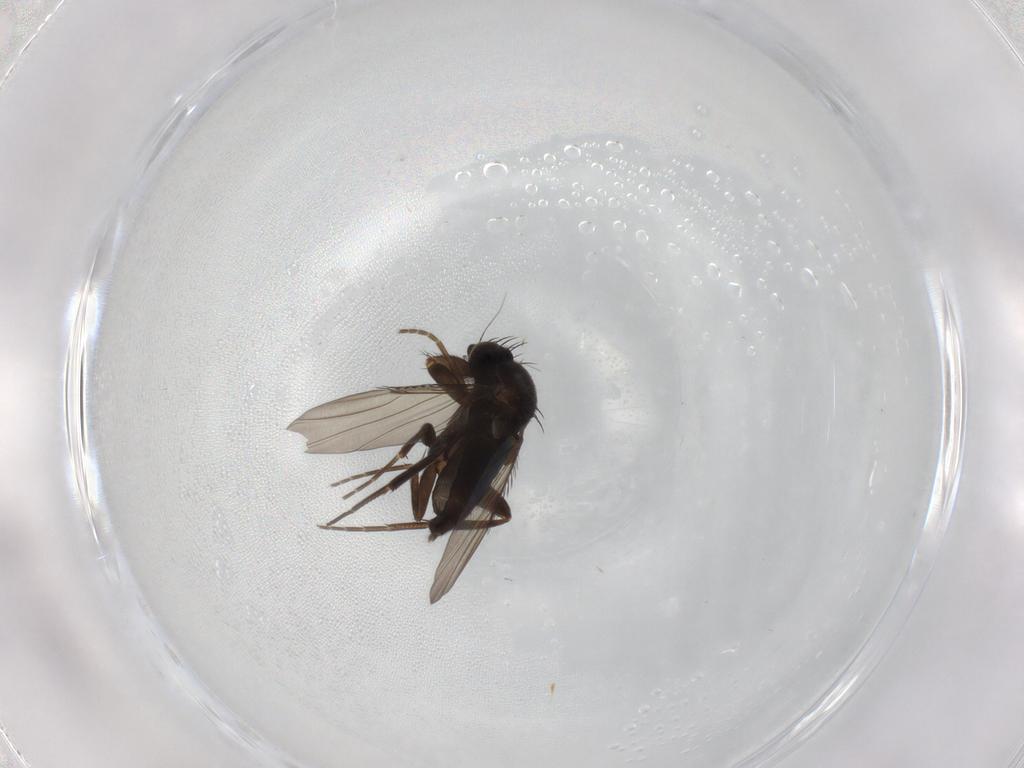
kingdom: Animalia
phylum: Arthropoda
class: Insecta
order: Diptera
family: Phoridae
